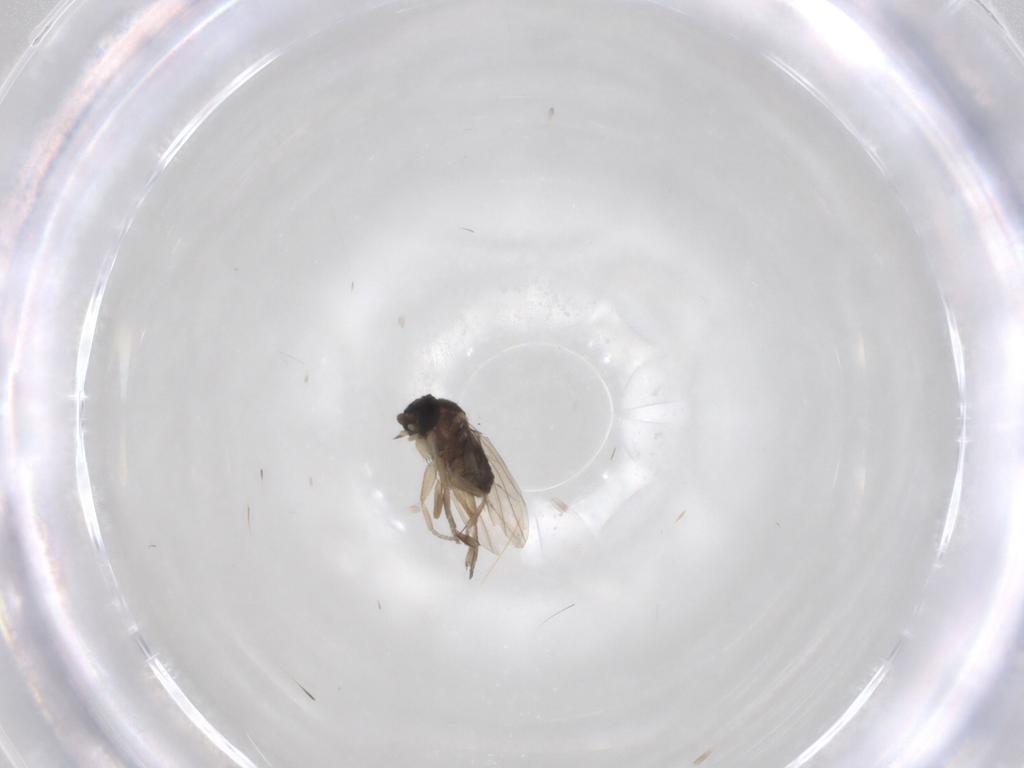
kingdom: Animalia
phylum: Arthropoda
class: Insecta
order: Diptera
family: Phoridae
